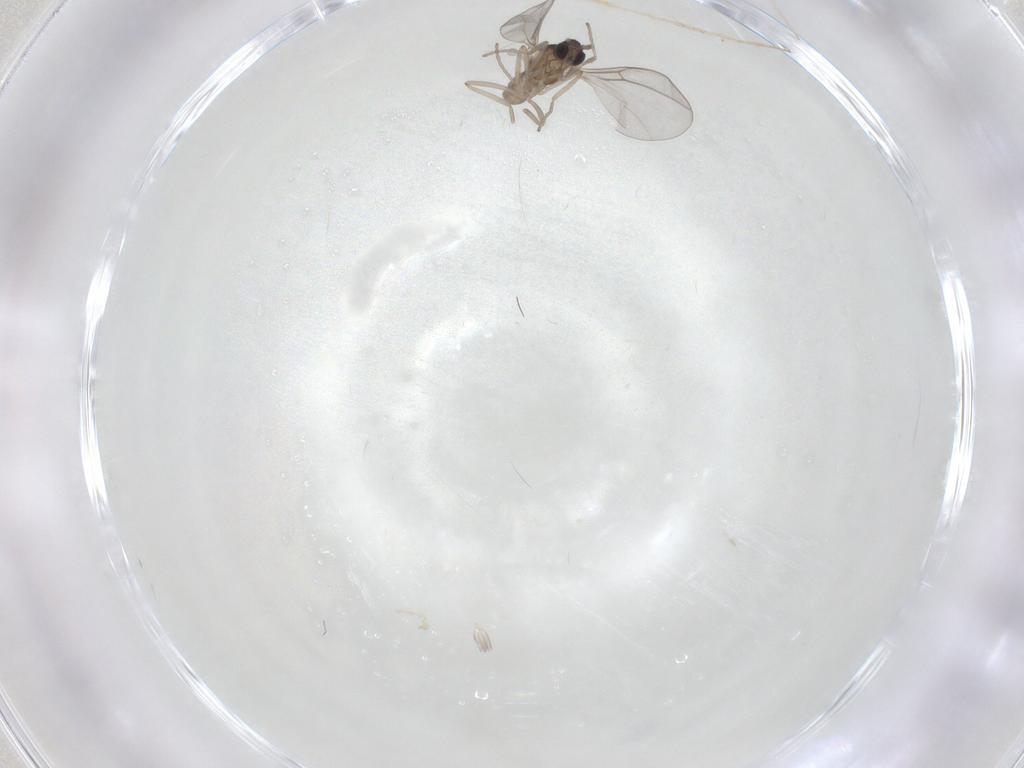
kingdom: Animalia
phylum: Arthropoda
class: Insecta
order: Diptera
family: Cecidomyiidae
